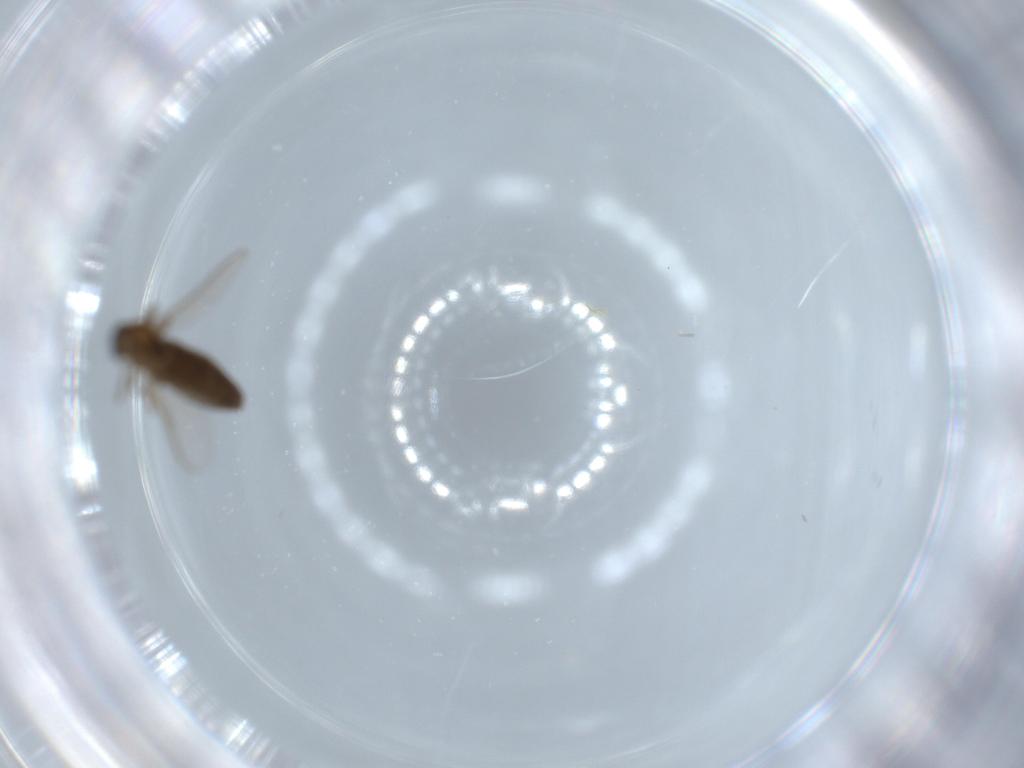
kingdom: Animalia
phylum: Arthropoda
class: Insecta
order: Diptera
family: Chironomidae
